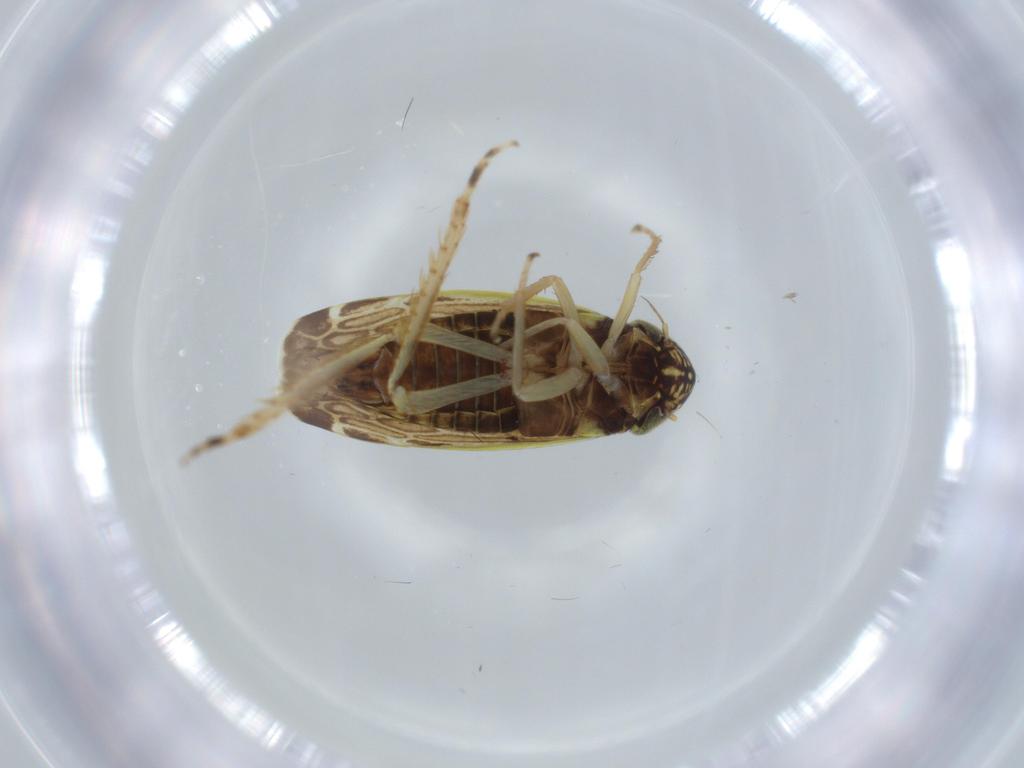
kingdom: Animalia
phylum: Arthropoda
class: Insecta
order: Hemiptera
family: Cicadellidae
